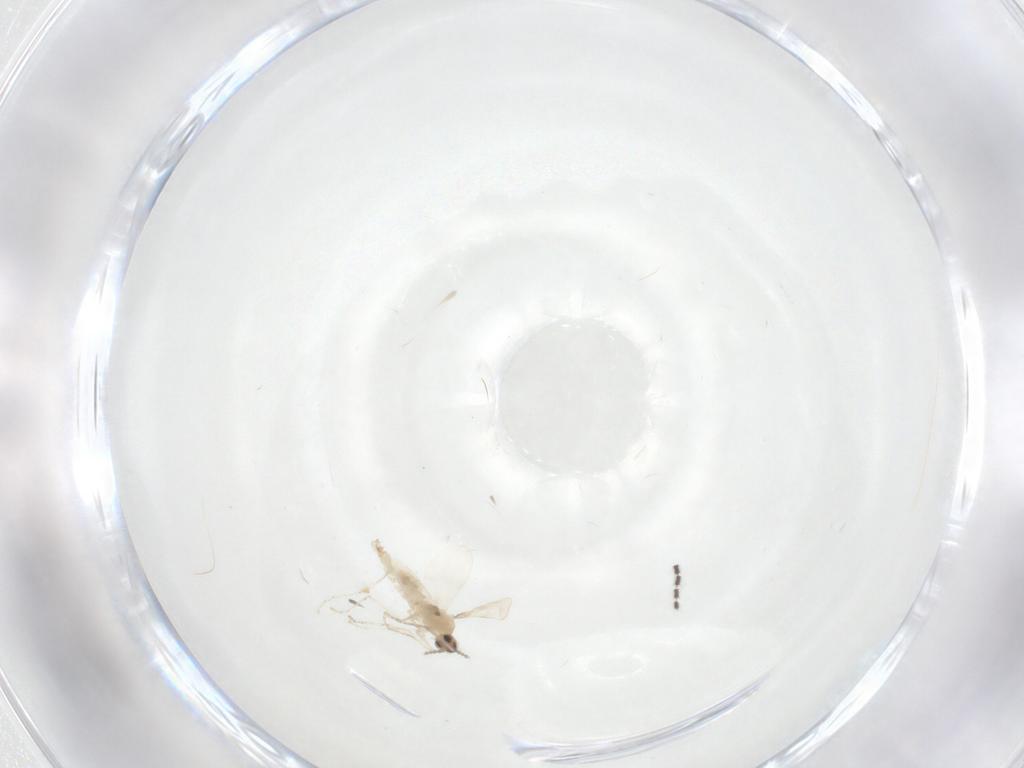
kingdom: Animalia
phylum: Arthropoda
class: Insecta
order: Diptera
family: Cecidomyiidae
